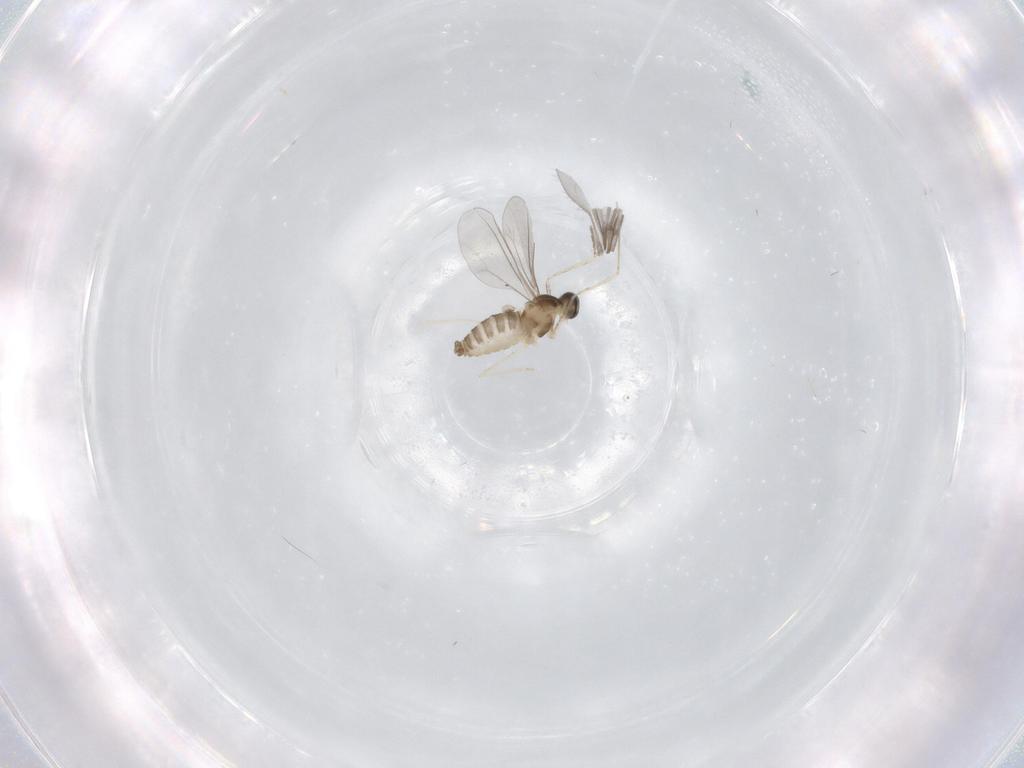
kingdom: Animalia
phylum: Arthropoda
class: Insecta
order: Diptera
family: Cecidomyiidae
